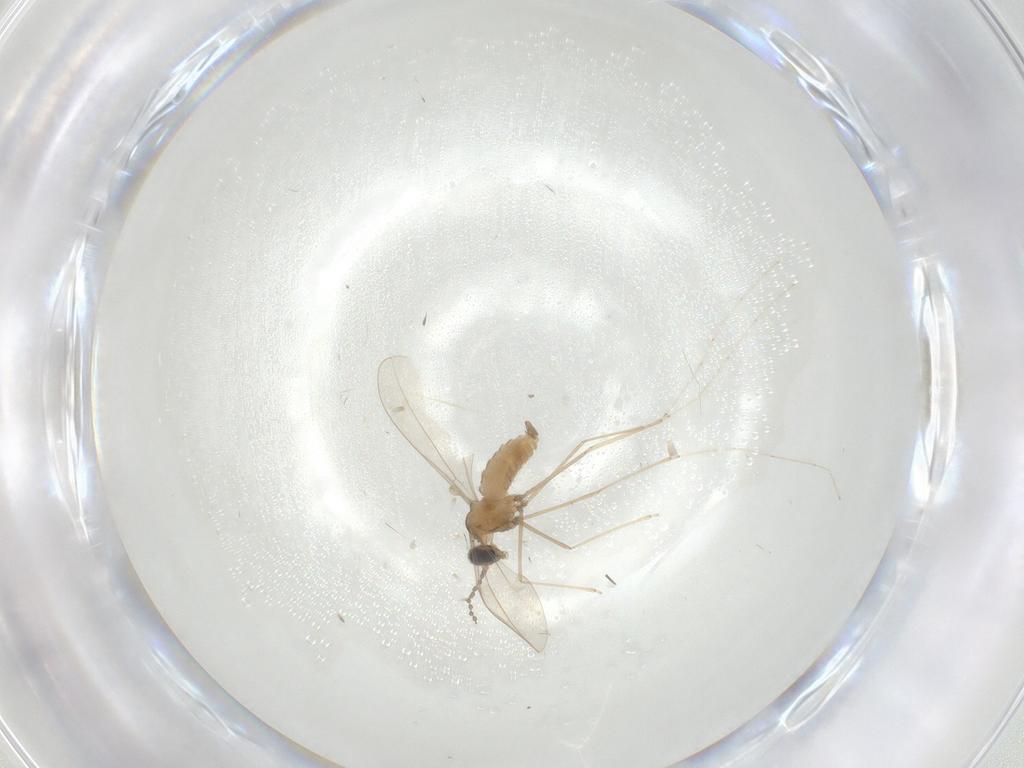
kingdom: Animalia
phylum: Arthropoda
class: Insecta
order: Diptera
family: Cecidomyiidae
